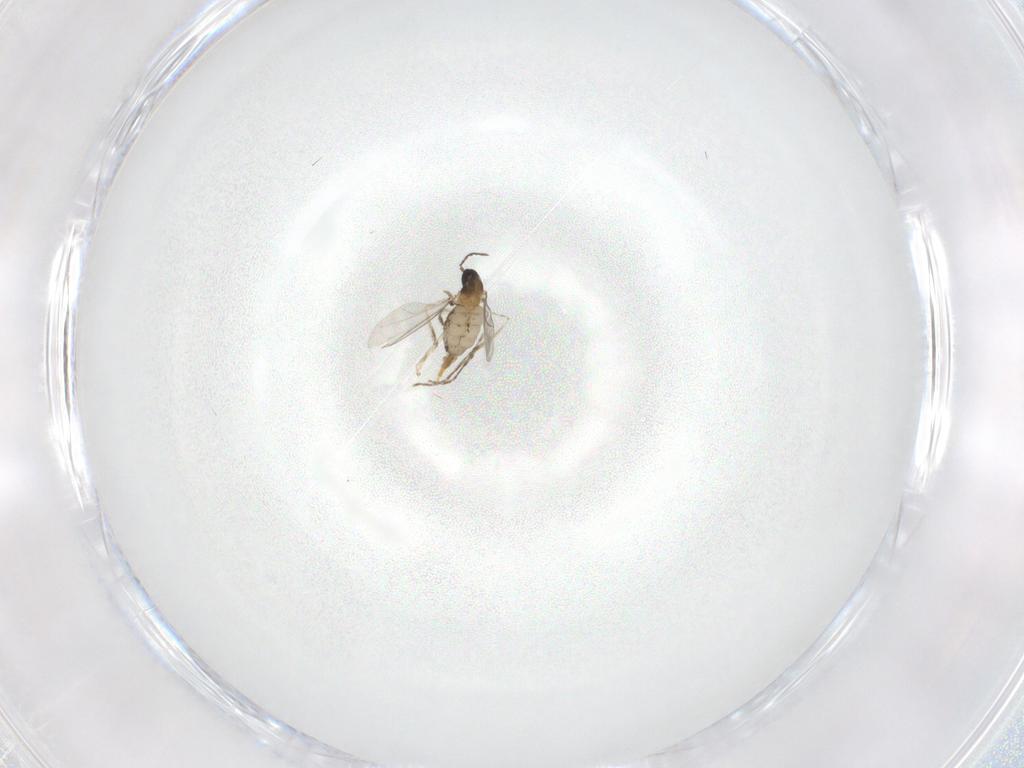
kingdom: Animalia
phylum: Arthropoda
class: Insecta
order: Diptera
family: Cecidomyiidae
